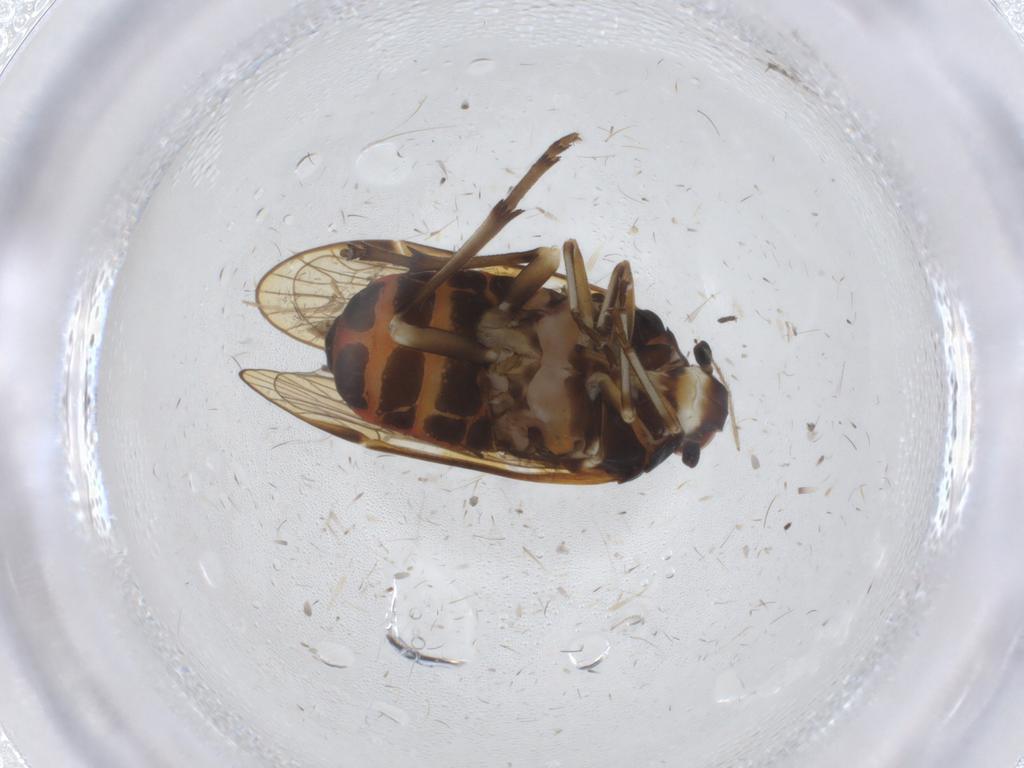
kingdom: Animalia
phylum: Arthropoda
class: Insecta
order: Hemiptera
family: Kinnaridae
